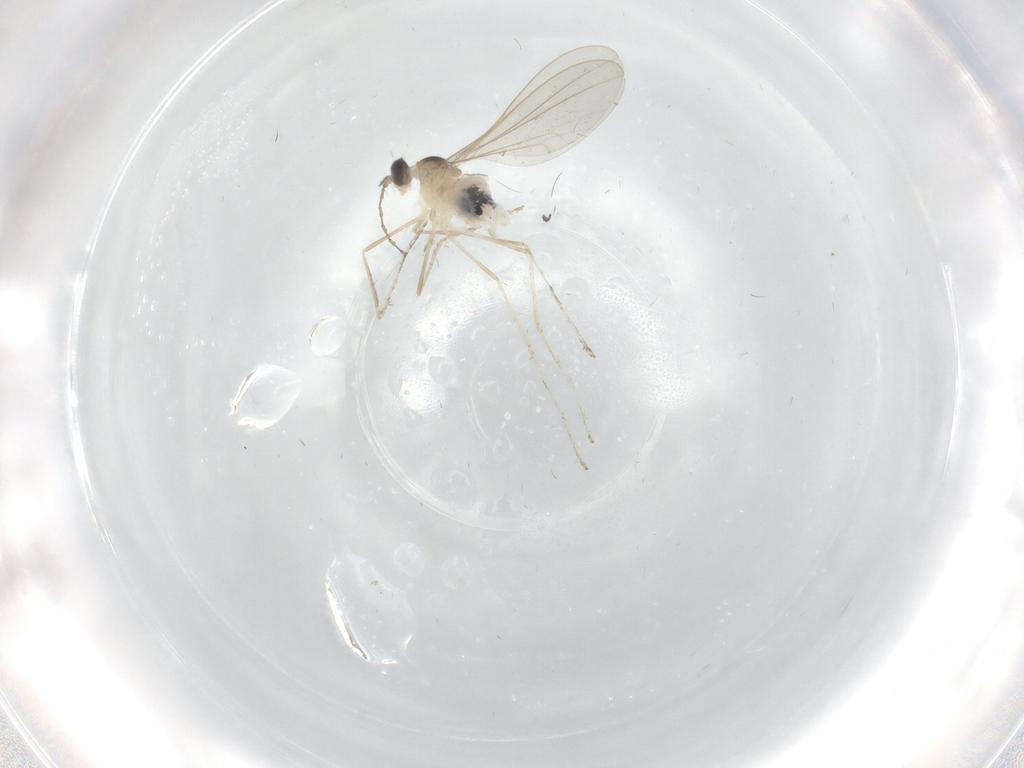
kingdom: Animalia
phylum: Arthropoda
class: Insecta
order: Diptera
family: Cecidomyiidae
